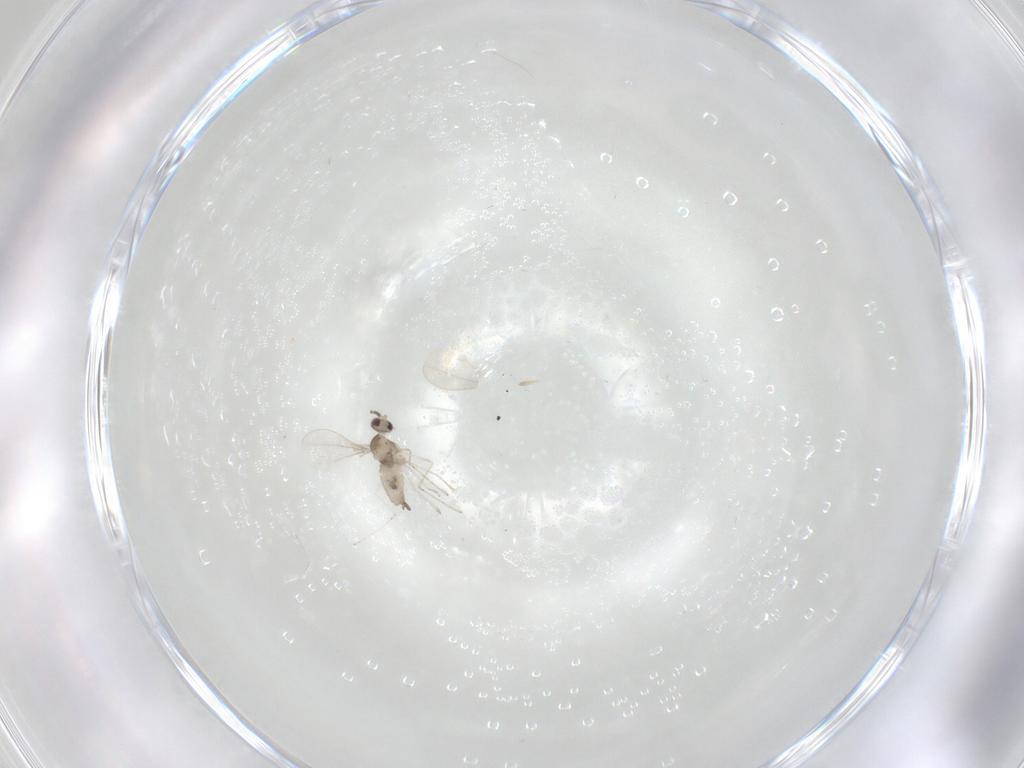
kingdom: Animalia
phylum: Arthropoda
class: Insecta
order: Diptera
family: Cecidomyiidae
